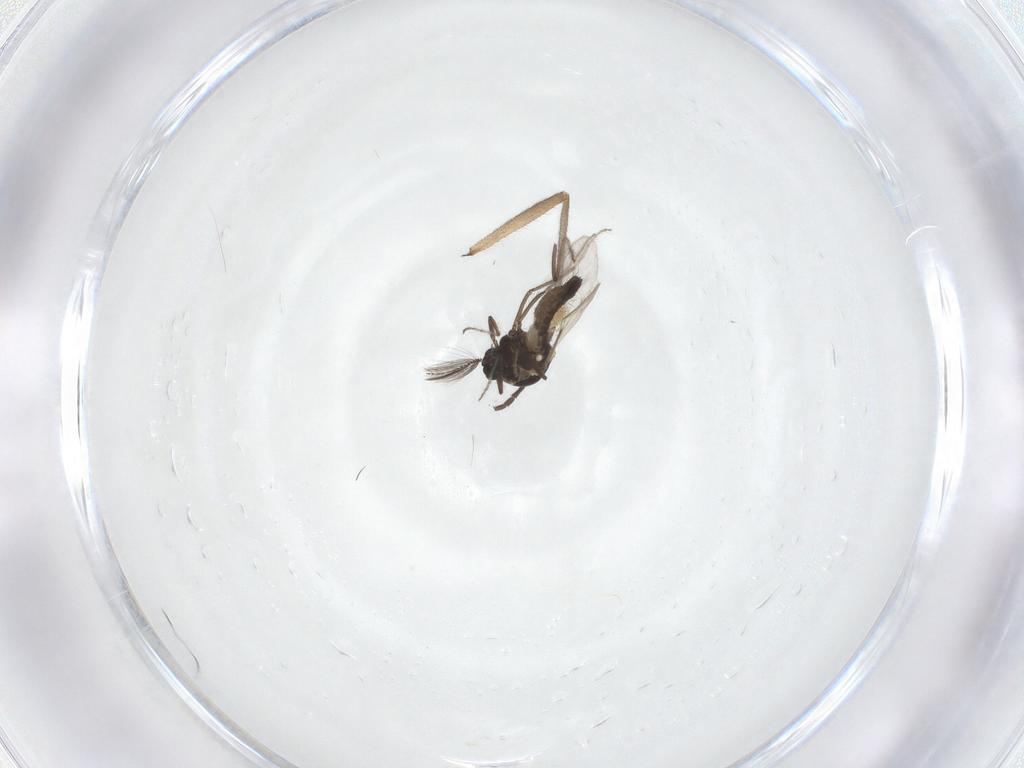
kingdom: Animalia
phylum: Arthropoda
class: Insecta
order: Diptera
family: Sciaridae
